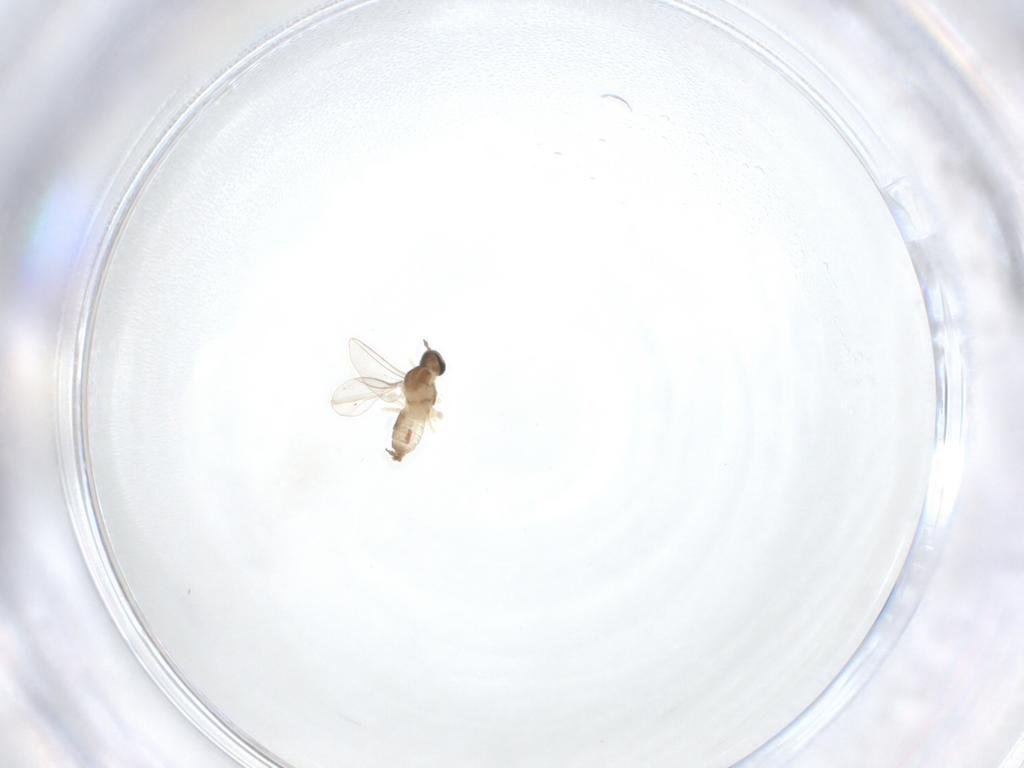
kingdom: Animalia
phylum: Arthropoda
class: Insecta
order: Diptera
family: Cecidomyiidae
